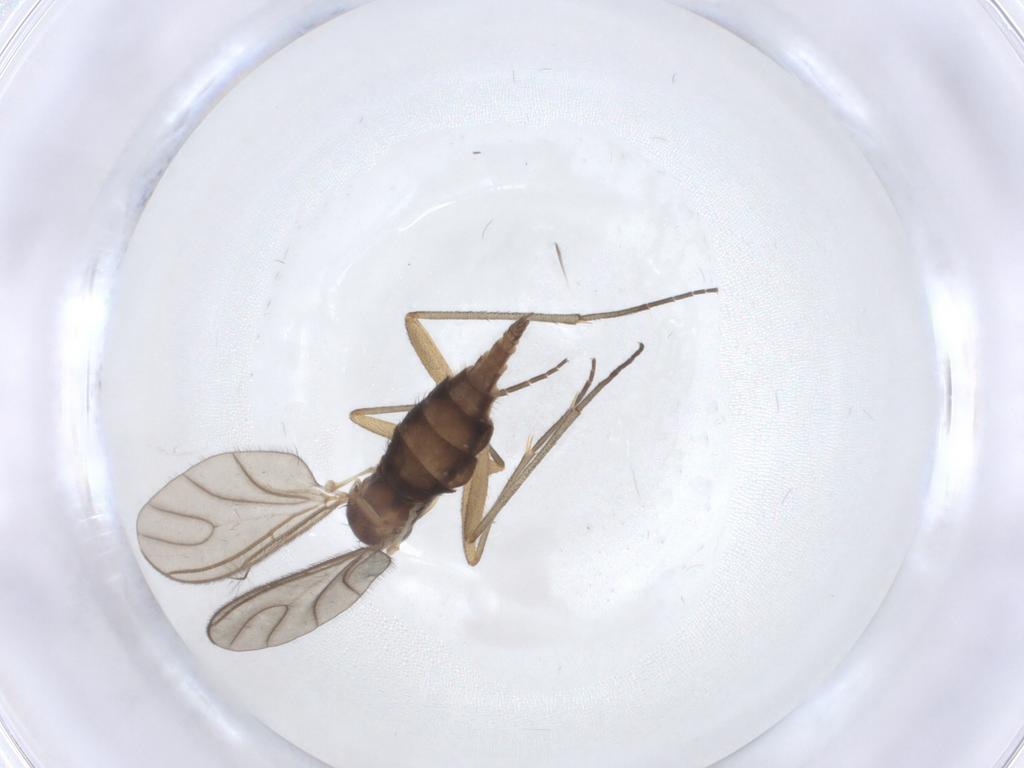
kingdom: Animalia
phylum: Arthropoda
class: Insecta
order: Diptera
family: Sciaridae
